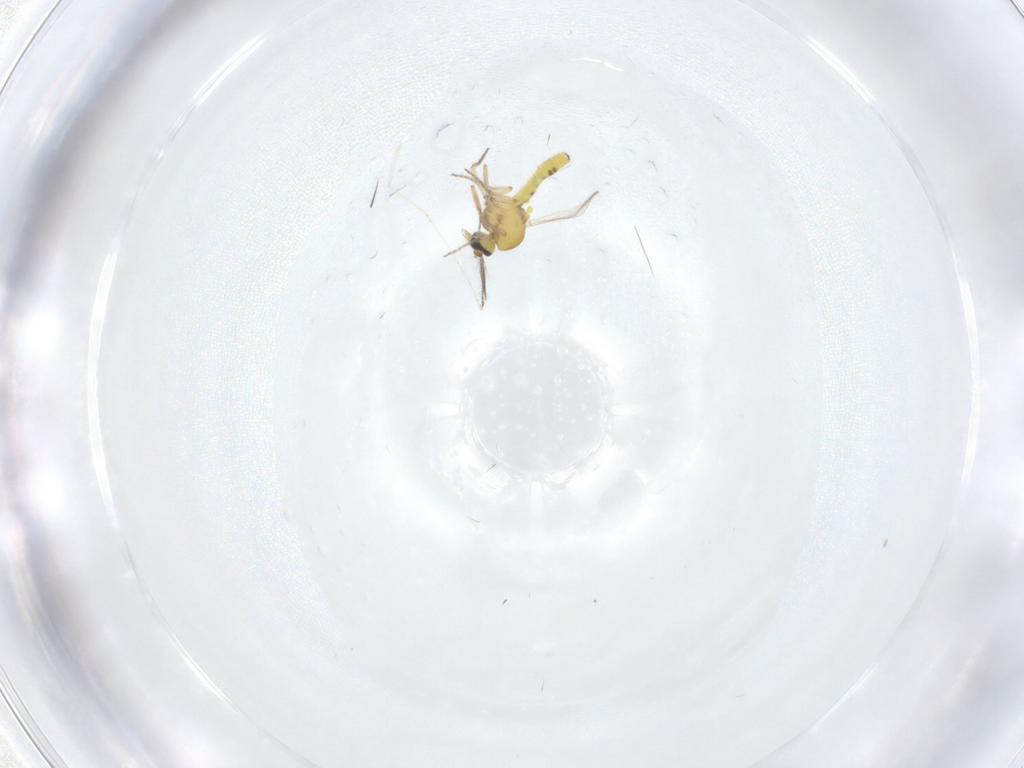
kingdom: Animalia
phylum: Arthropoda
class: Insecta
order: Diptera
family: Ceratopogonidae
